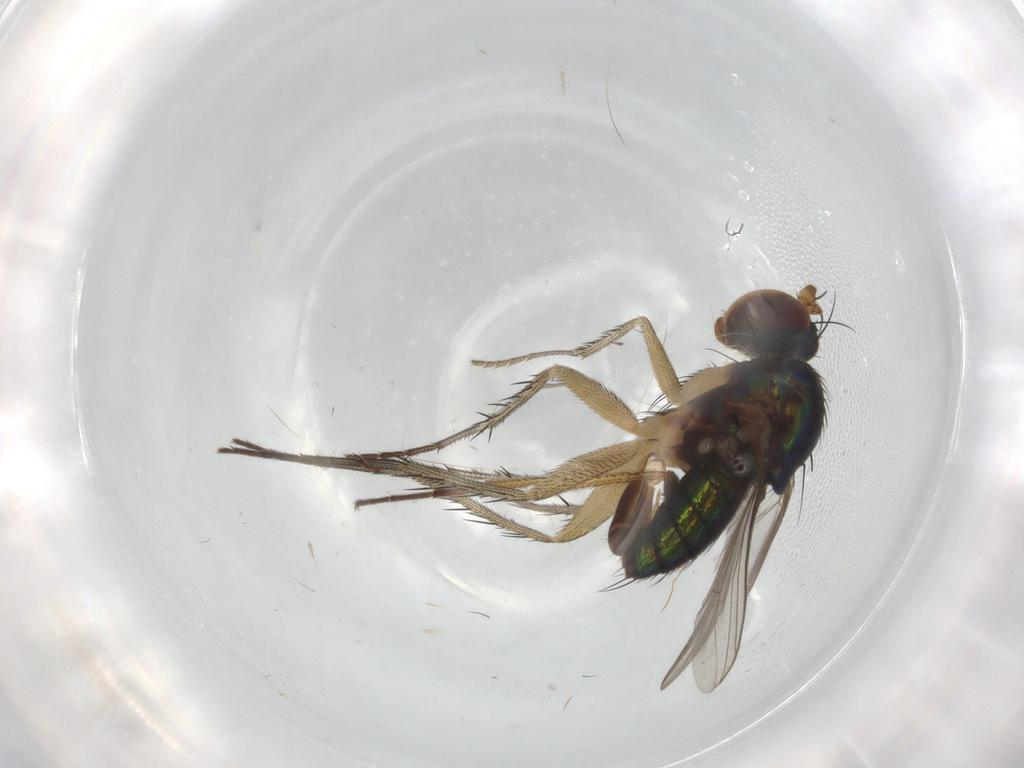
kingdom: Animalia
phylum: Arthropoda
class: Insecta
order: Diptera
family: Dolichopodidae
